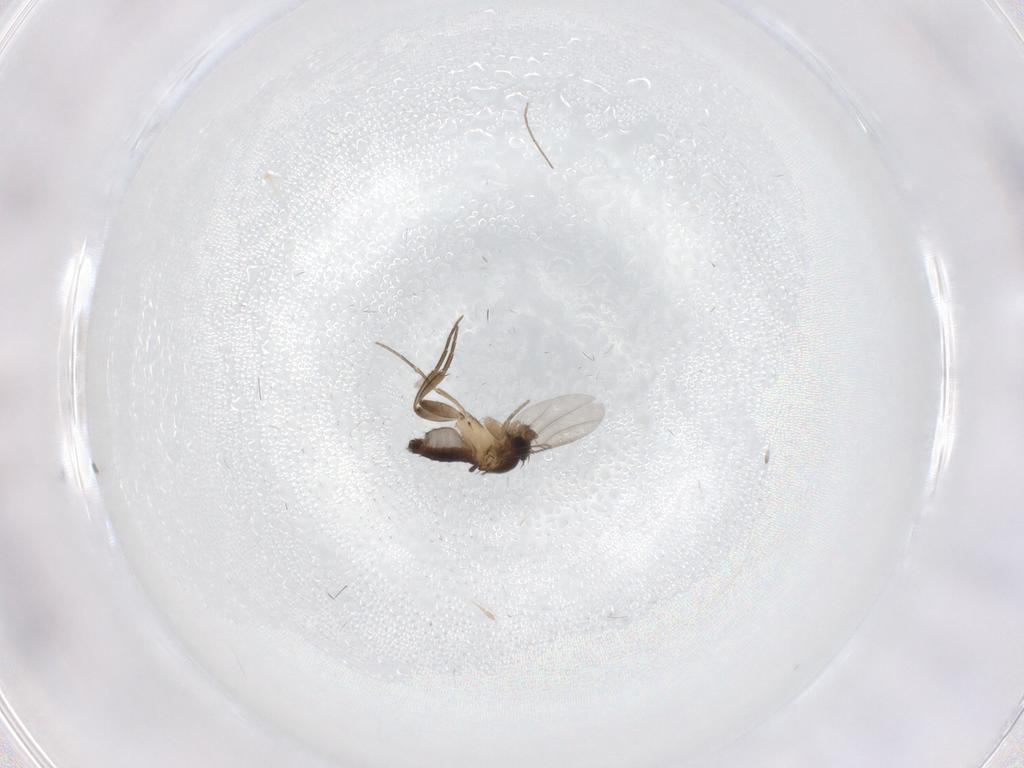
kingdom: Animalia
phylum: Arthropoda
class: Insecta
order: Diptera
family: Phoridae
